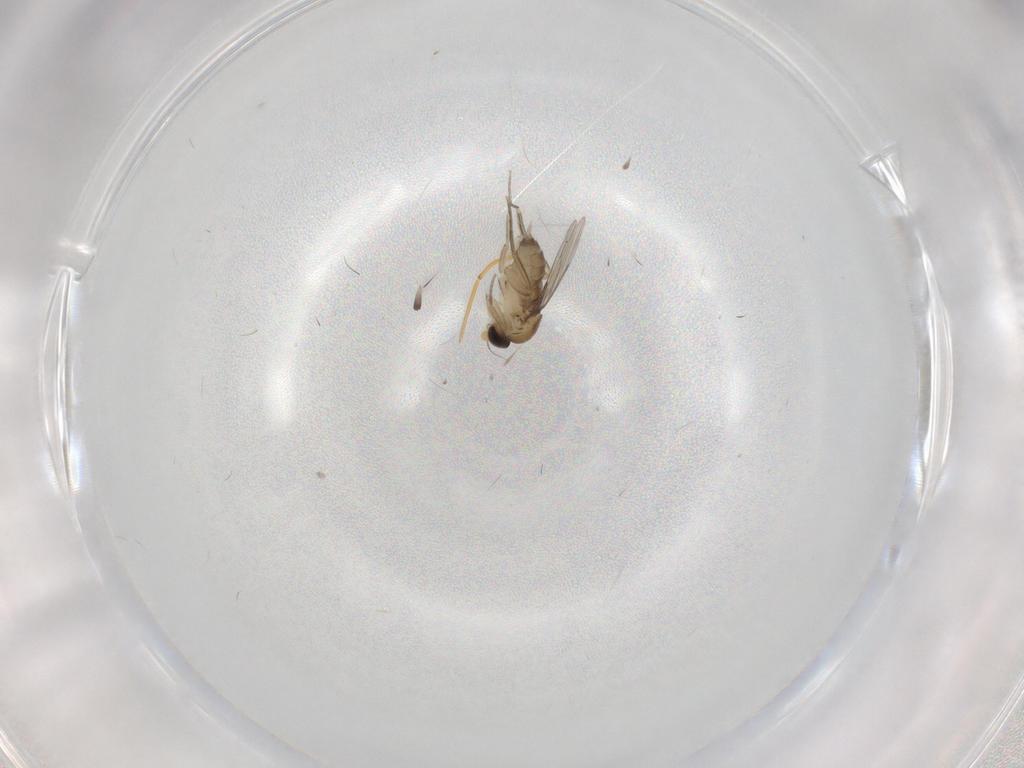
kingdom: Animalia
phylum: Arthropoda
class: Insecta
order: Diptera
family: Phoridae
